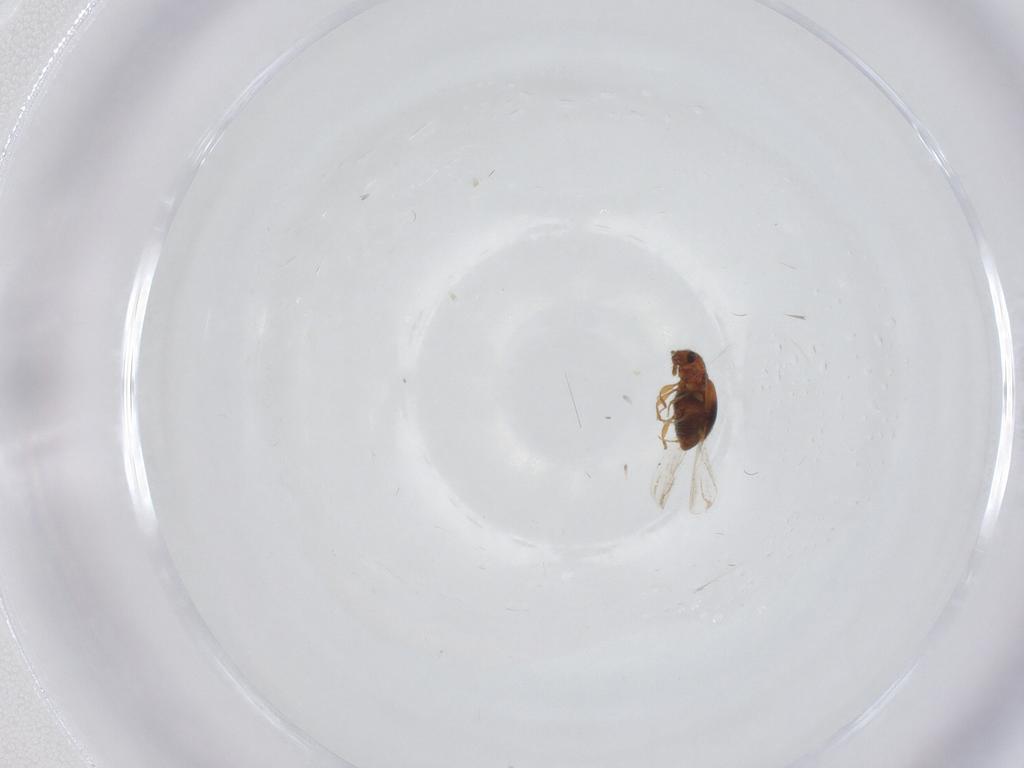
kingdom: Animalia
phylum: Arthropoda
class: Insecta
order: Coleoptera
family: Staphylinidae
